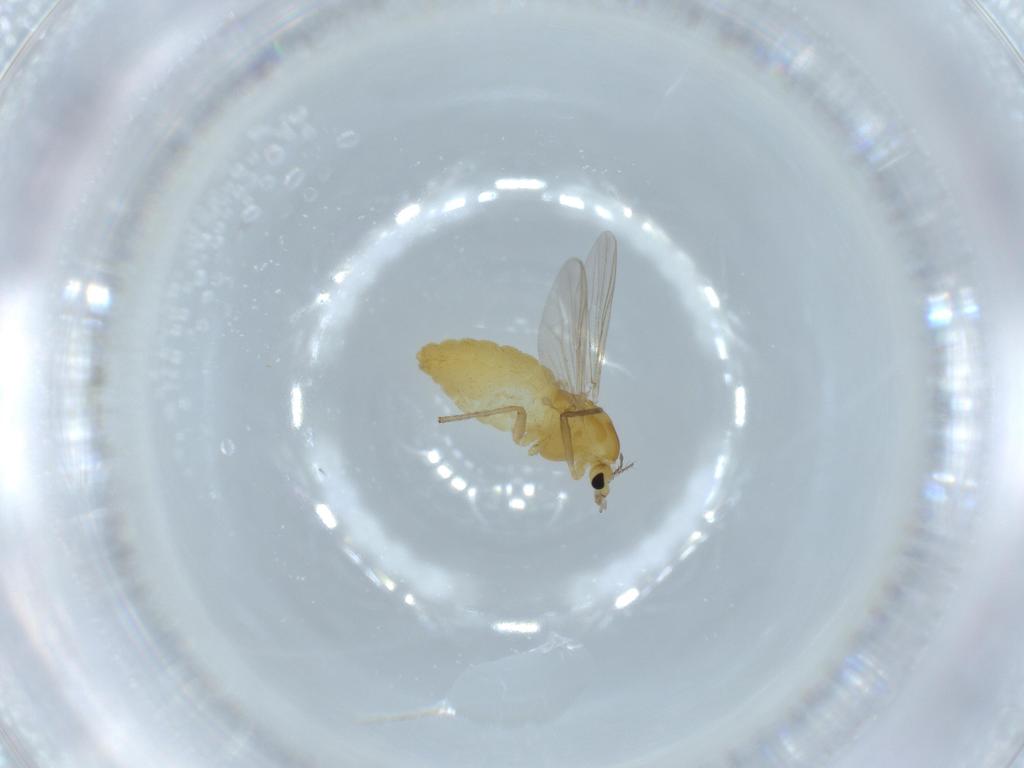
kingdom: Animalia
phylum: Arthropoda
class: Insecta
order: Diptera
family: Chironomidae
